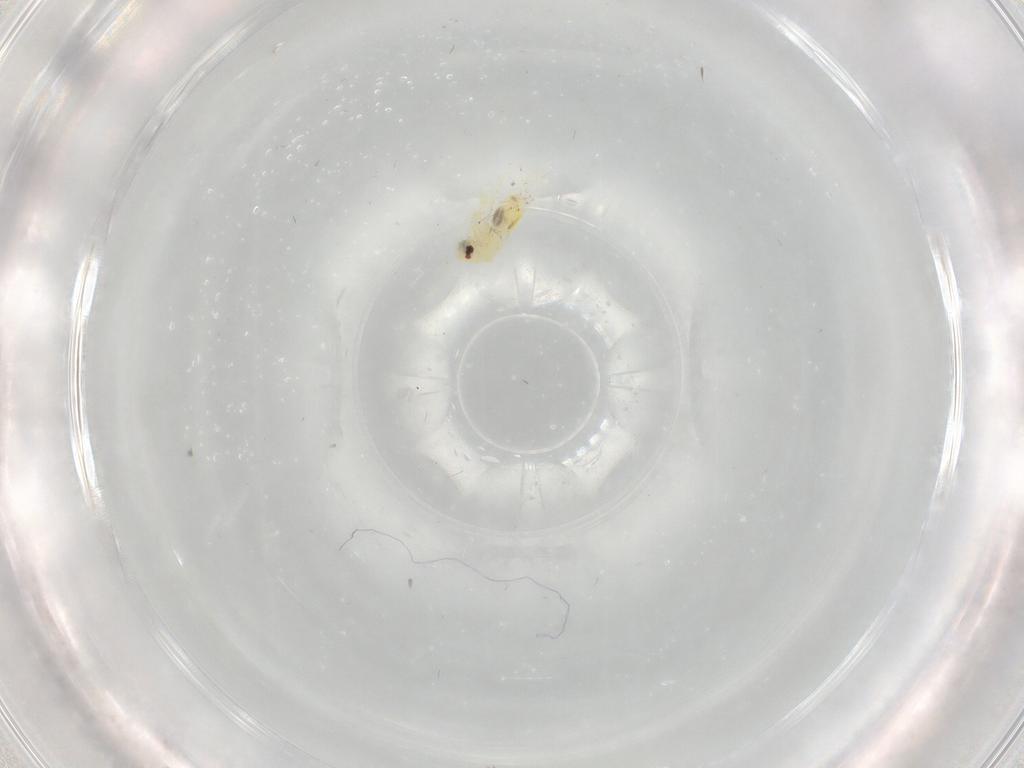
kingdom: Animalia
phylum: Arthropoda
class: Insecta
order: Hemiptera
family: Aleyrodidae
